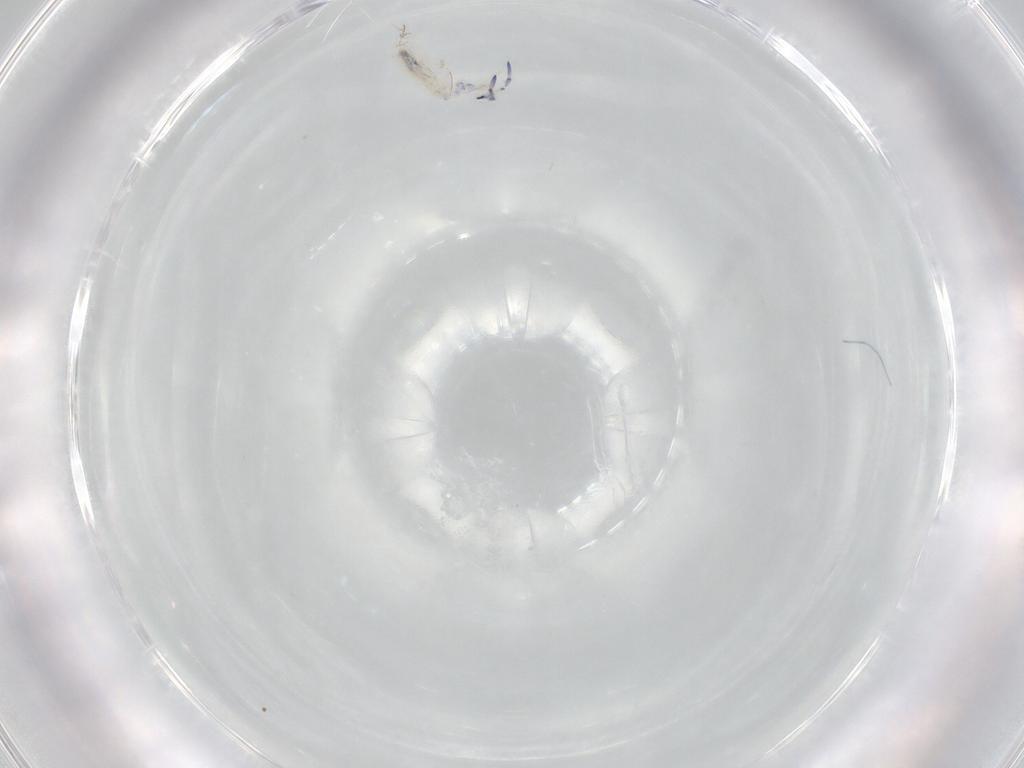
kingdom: Animalia
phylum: Arthropoda
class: Collembola
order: Entomobryomorpha
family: Entomobryidae
